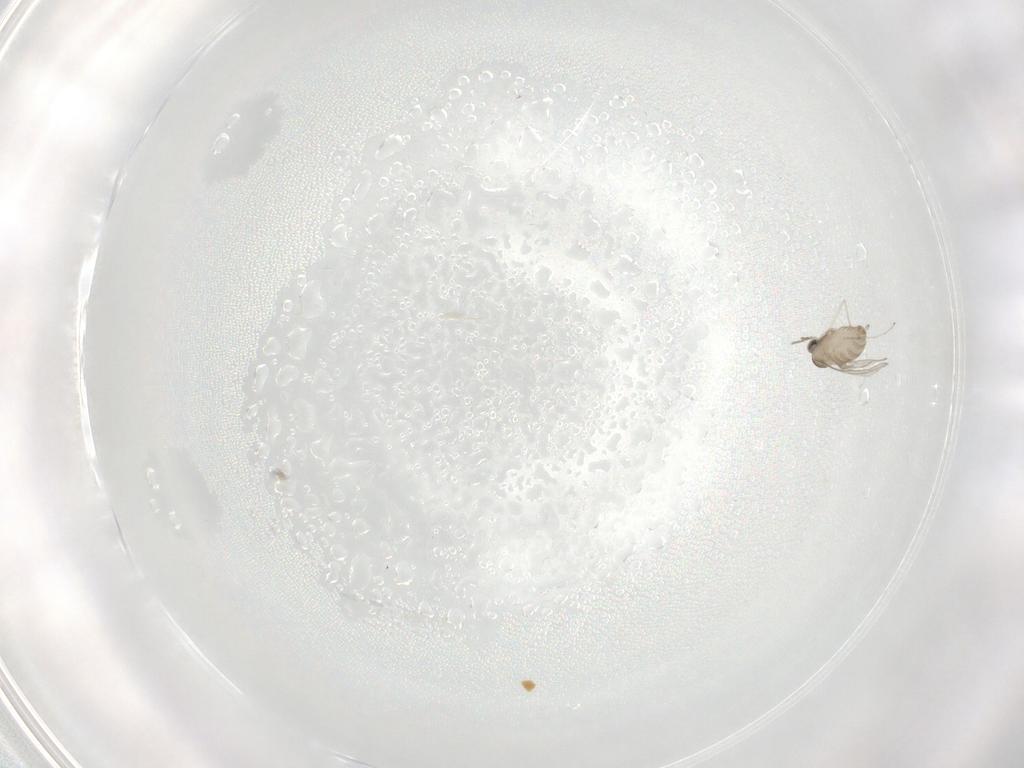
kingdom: Animalia
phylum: Arthropoda
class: Insecta
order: Diptera
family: Cecidomyiidae
